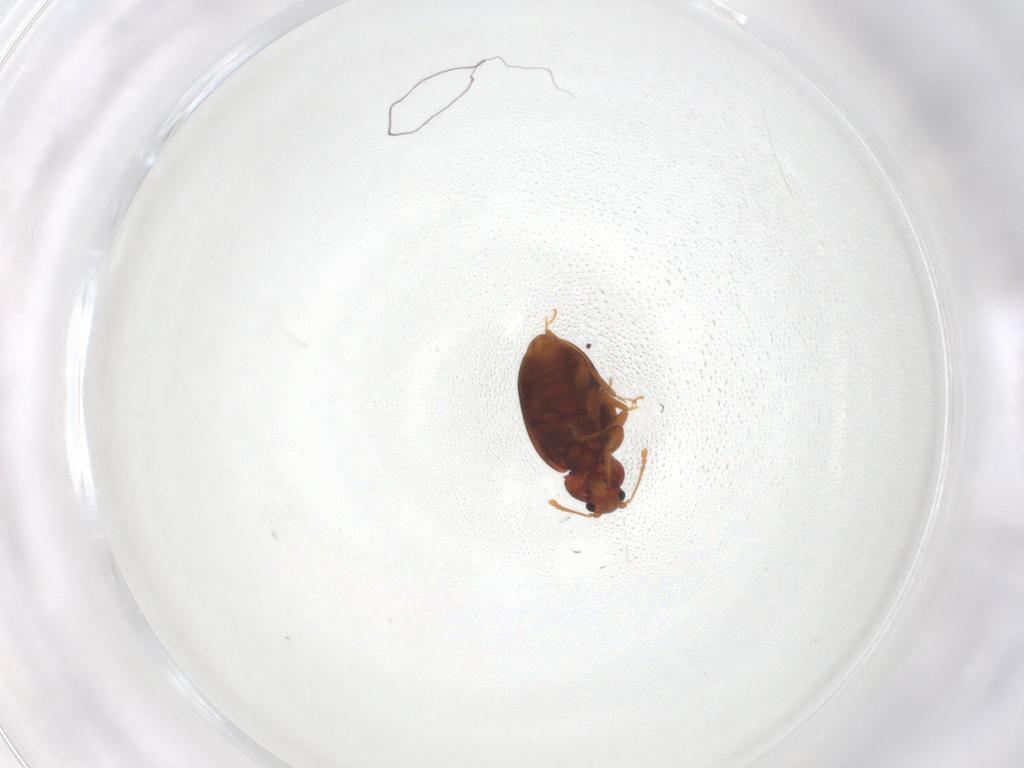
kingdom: Animalia
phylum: Arthropoda
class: Insecta
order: Coleoptera
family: Latridiidae
